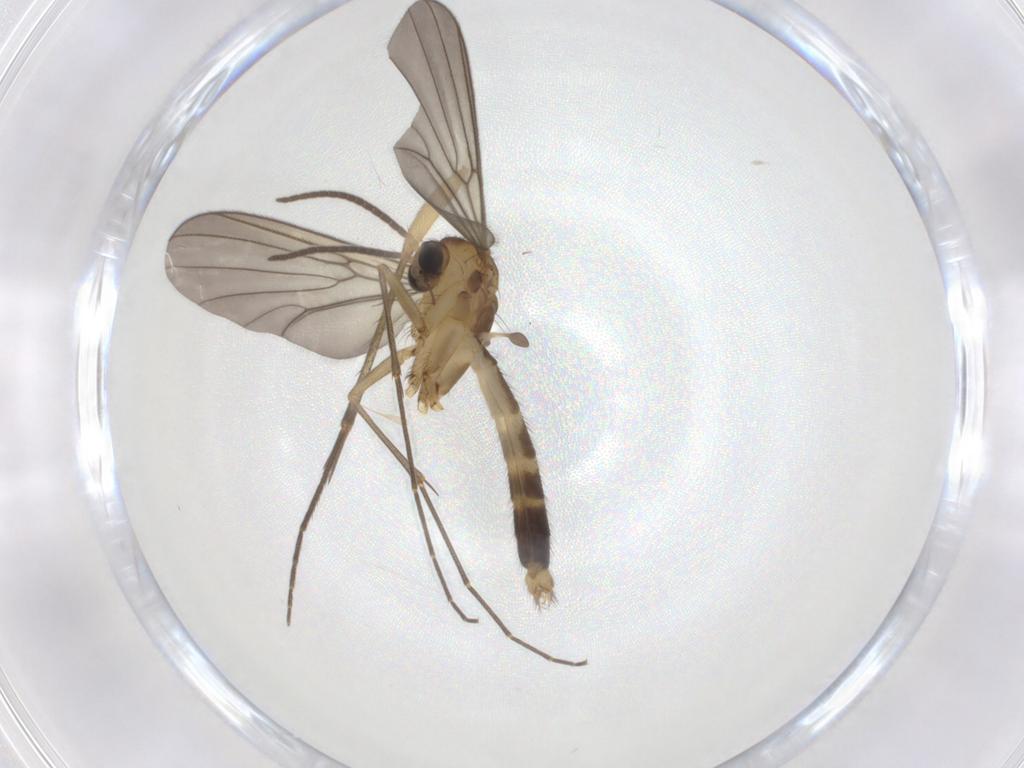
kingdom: Animalia
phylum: Arthropoda
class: Insecta
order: Diptera
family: Mycetophilidae
